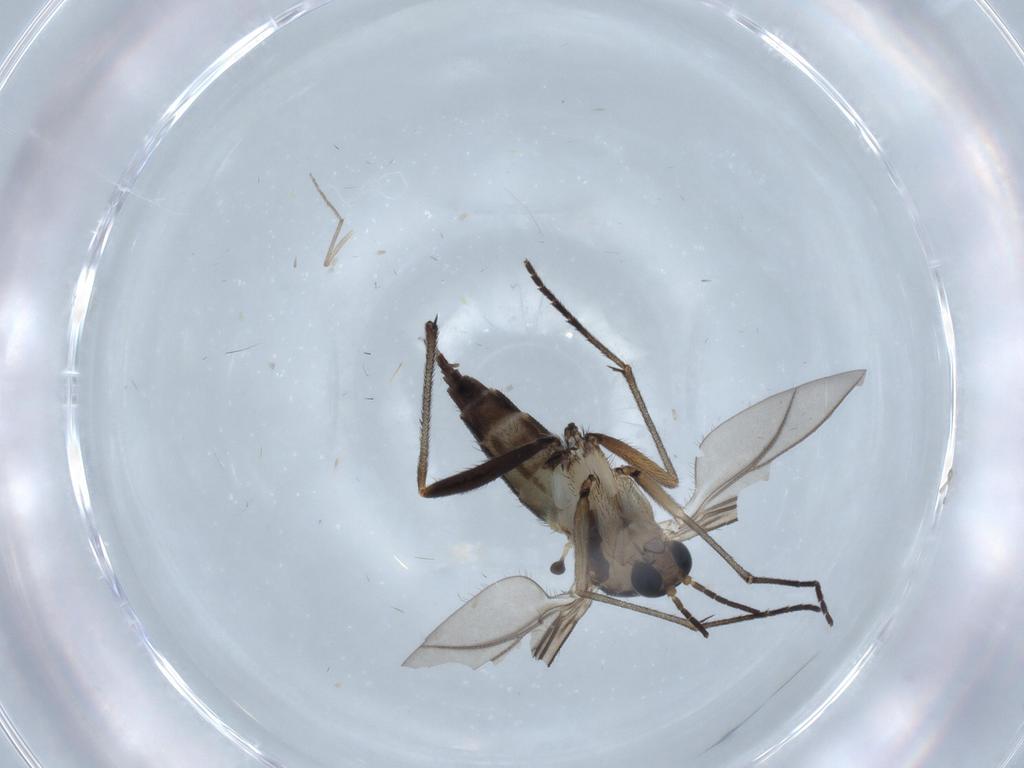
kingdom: Animalia
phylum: Arthropoda
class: Insecta
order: Diptera
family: Sciaridae
